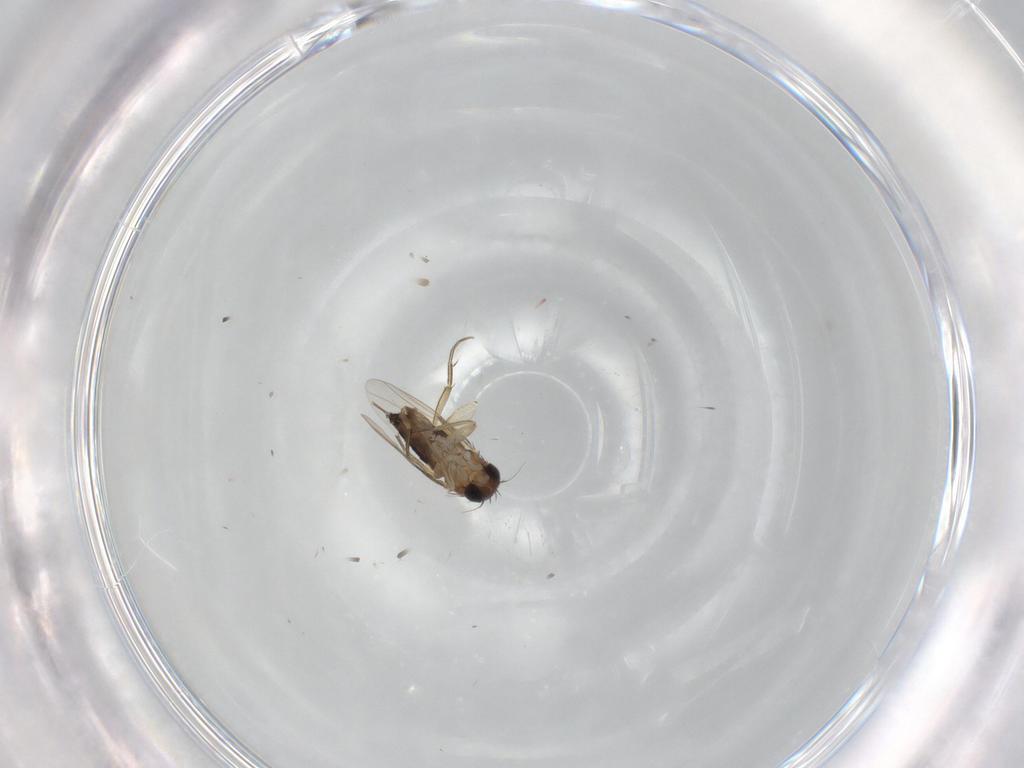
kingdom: Animalia
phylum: Arthropoda
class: Insecta
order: Diptera
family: Phoridae
